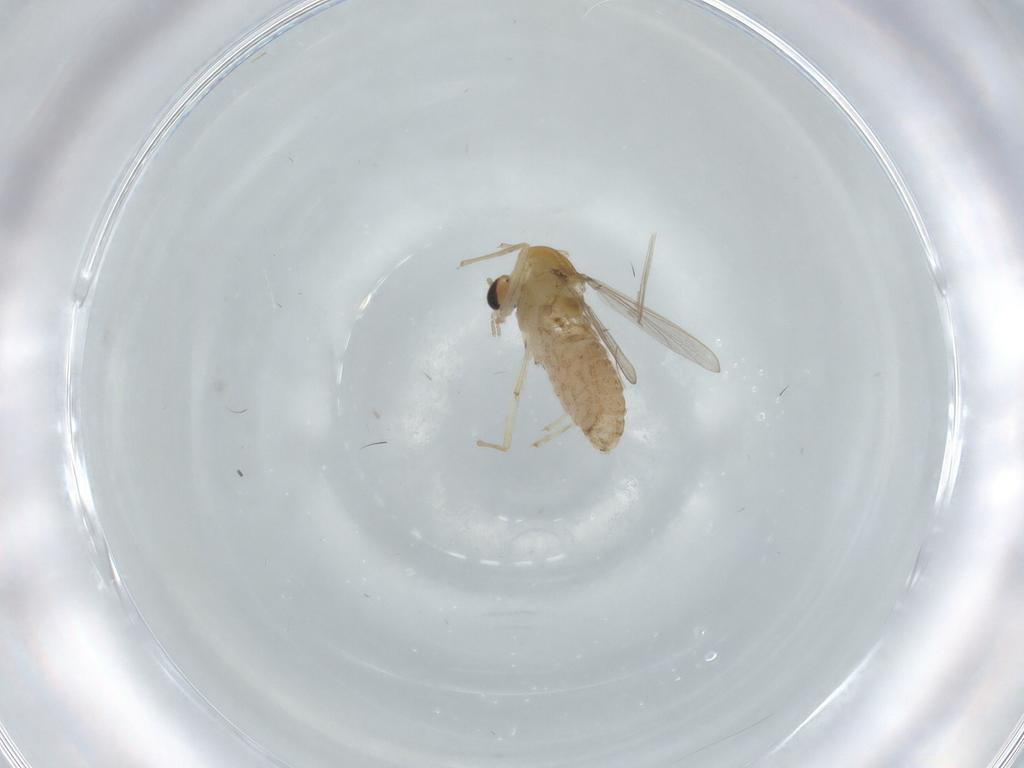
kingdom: Animalia
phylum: Arthropoda
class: Insecta
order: Diptera
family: Chironomidae
